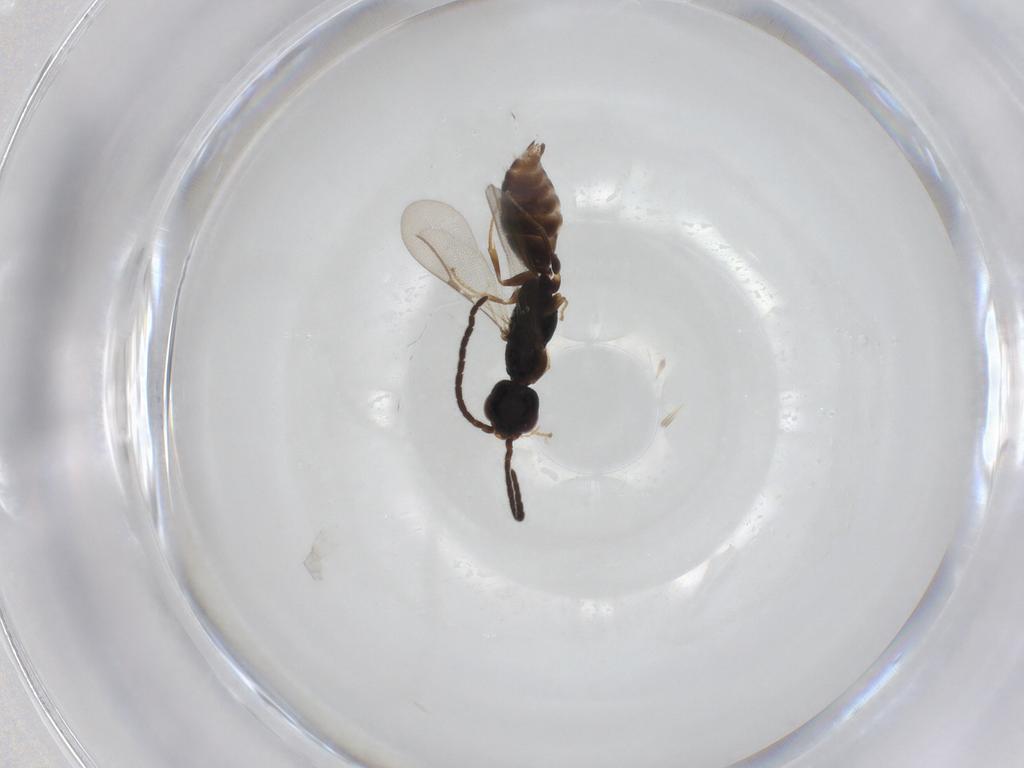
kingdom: Animalia
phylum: Arthropoda
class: Insecta
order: Hymenoptera
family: Bethylidae
